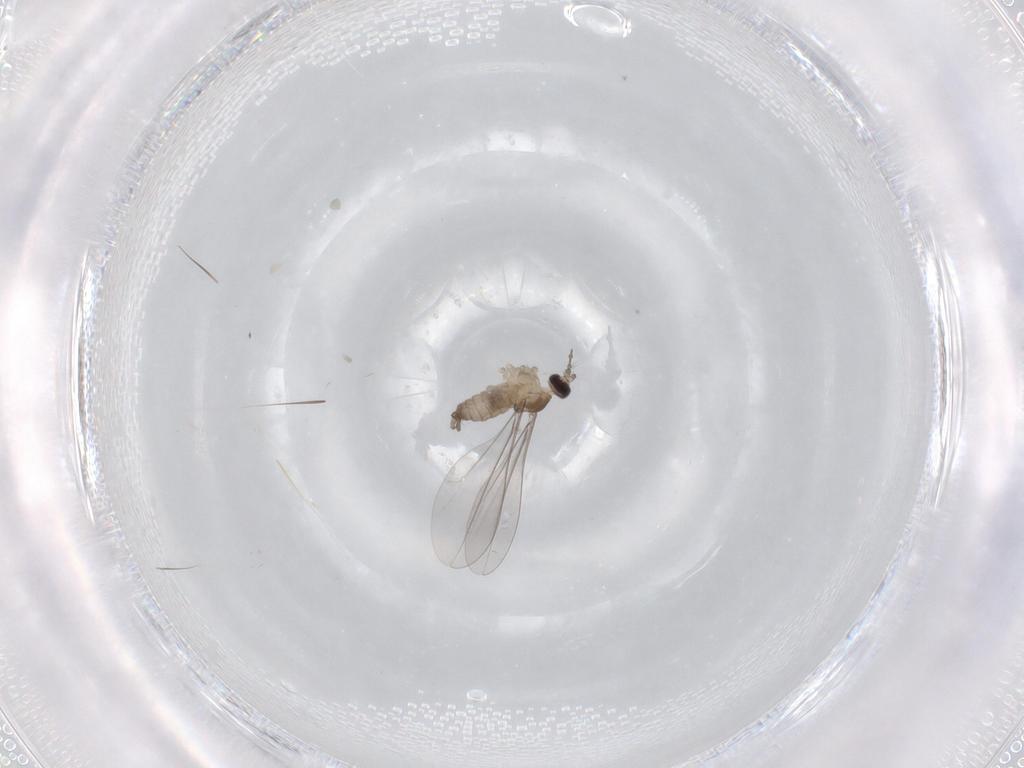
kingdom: Animalia
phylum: Arthropoda
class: Insecta
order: Diptera
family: Cecidomyiidae
